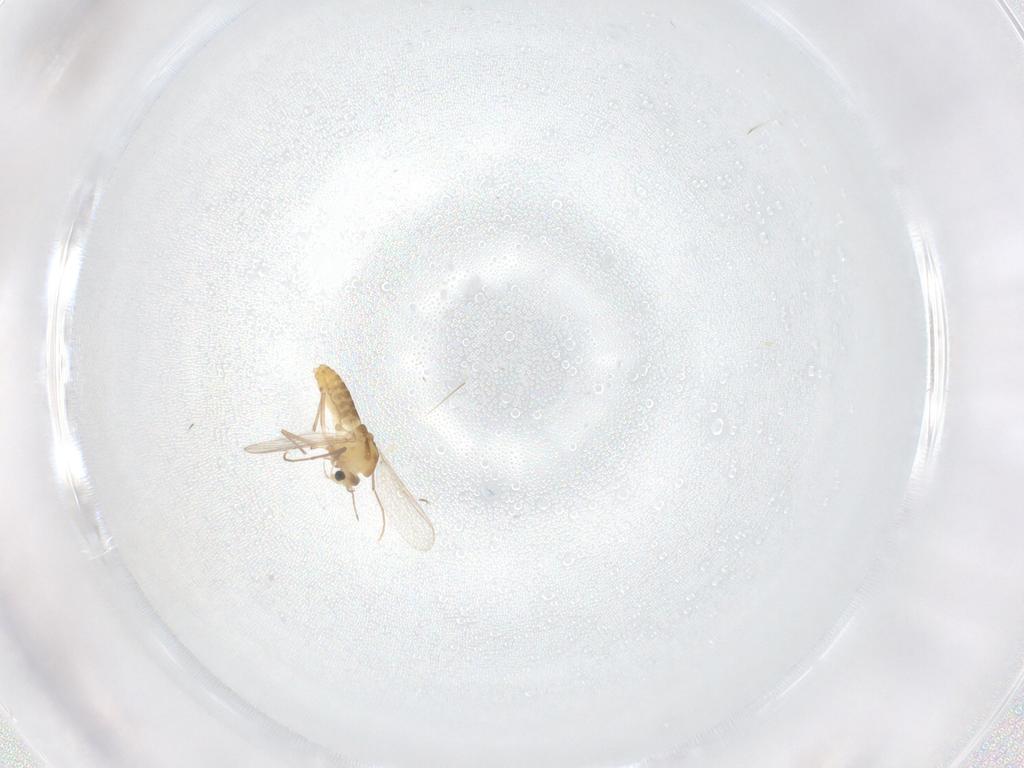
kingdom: Animalia
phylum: Arthropoda
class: Insecta
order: Diptera
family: Chironomidae
